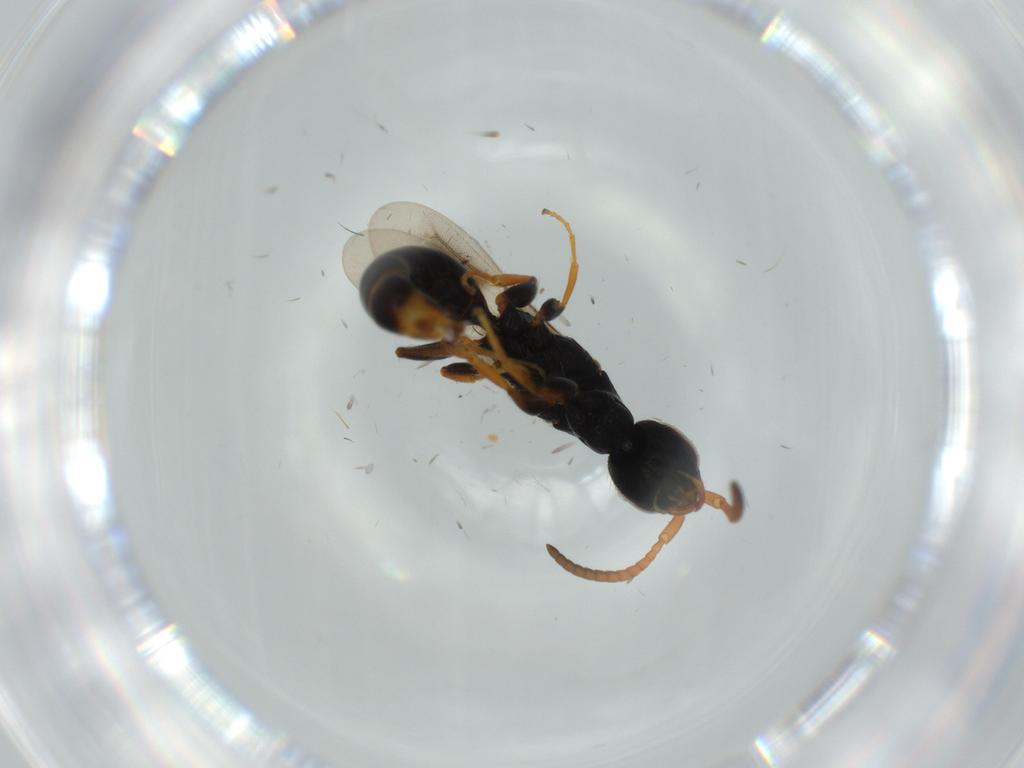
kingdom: Animalia
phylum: Arthropoda
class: Insecta
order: Hymenoptera
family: Bethylidae
